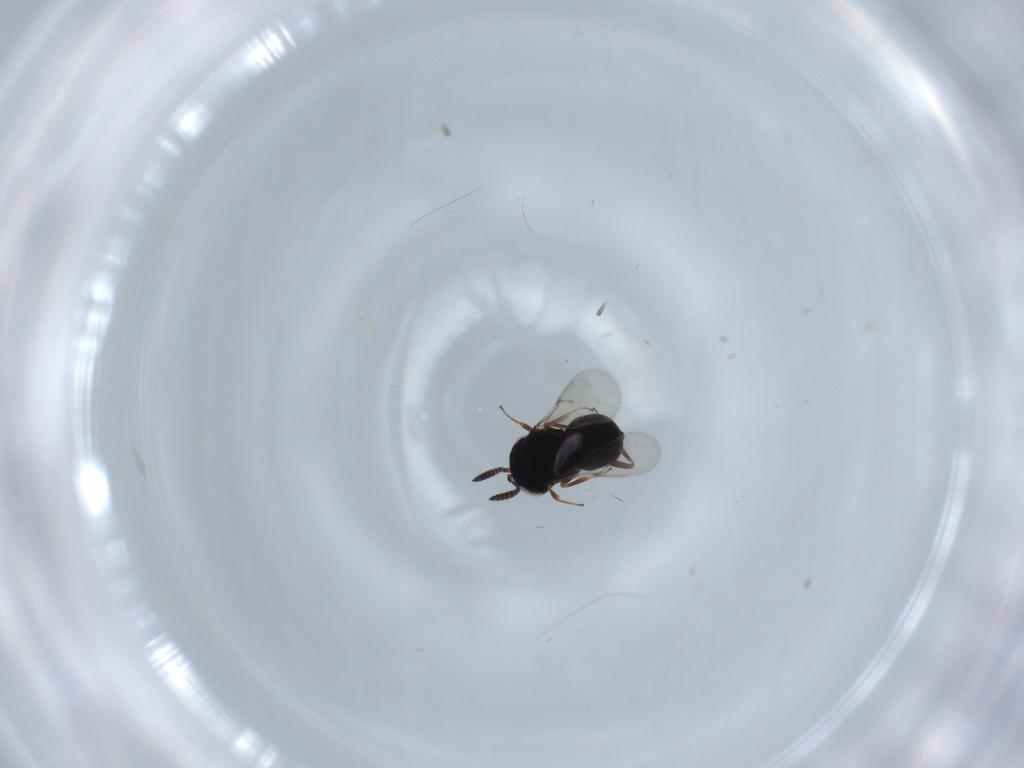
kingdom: Animalia
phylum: Arthropoda
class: Insecta
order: Hymenoptera
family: Scelionidae
